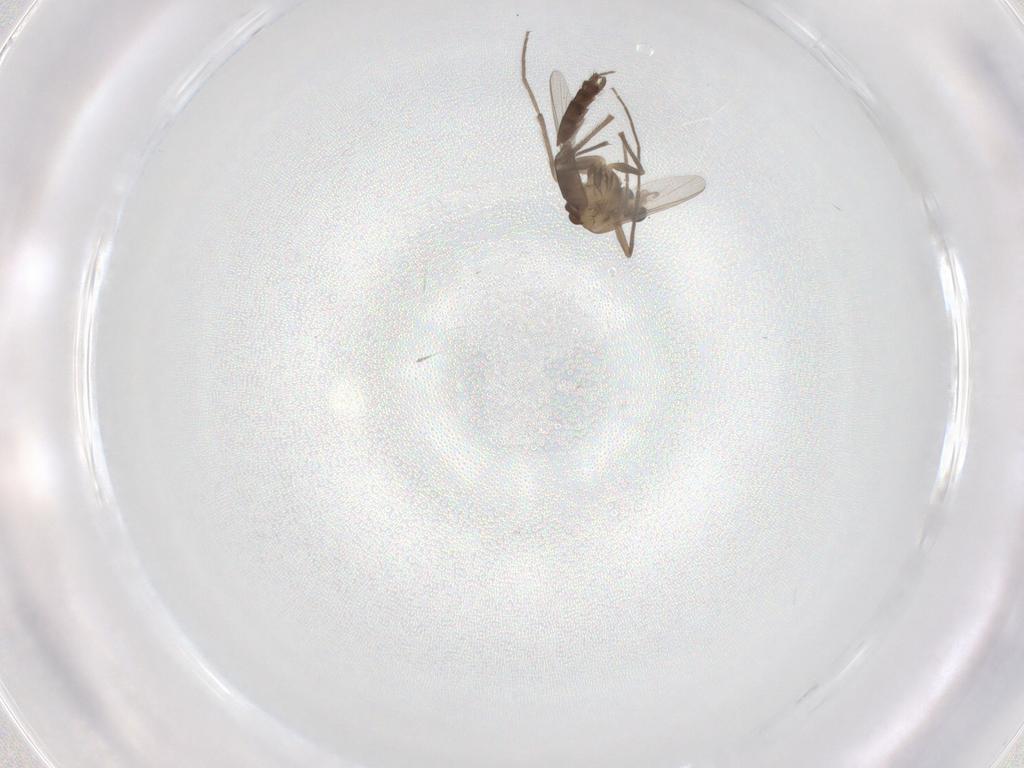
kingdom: Animalia
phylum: Arthropoda
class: Insecta
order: Diptera
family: Chironomidae
